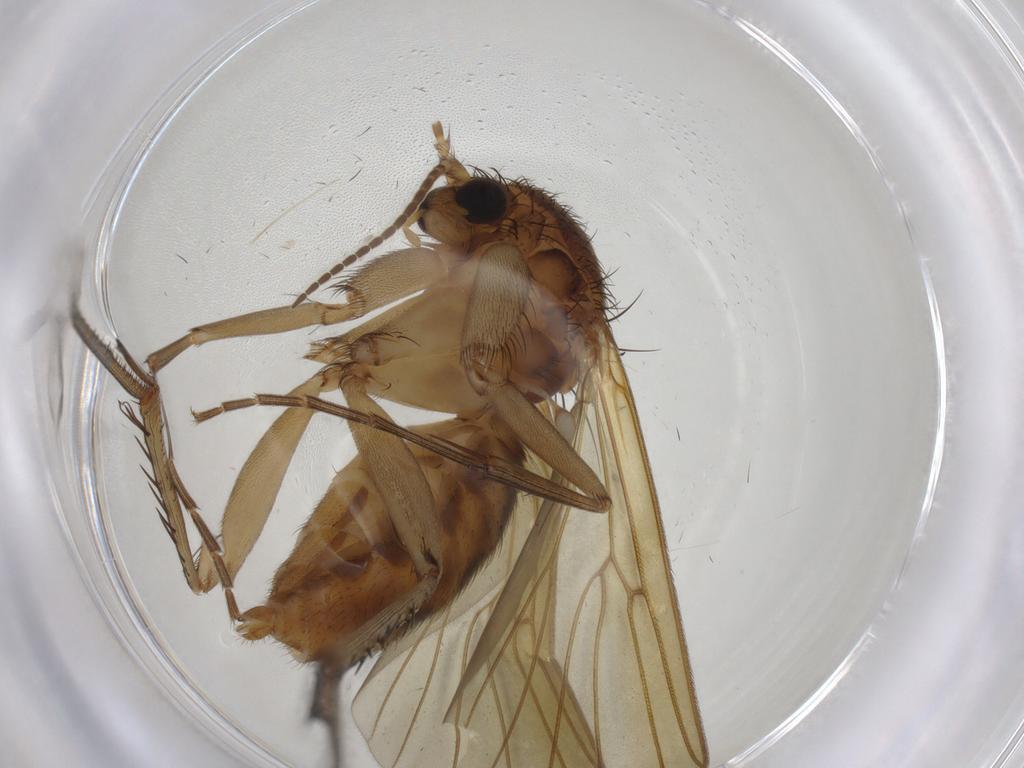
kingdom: Animalia
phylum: Arthropoda
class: Insecta
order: Diptera
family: Cecidomyiidae
